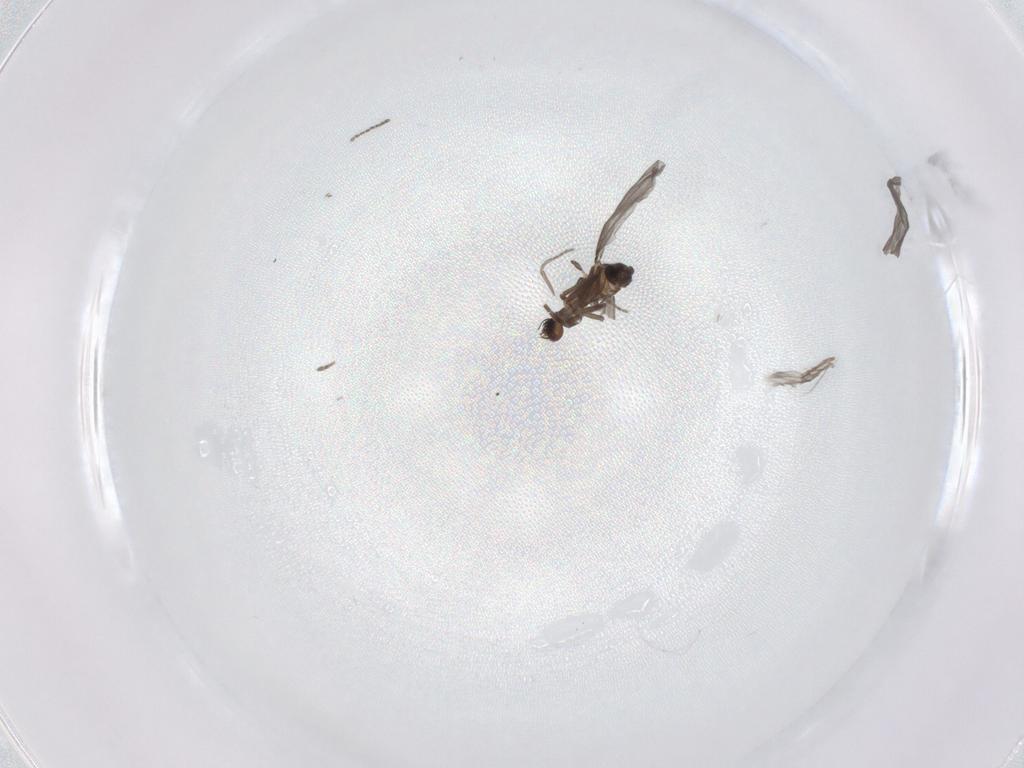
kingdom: Animalia
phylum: Arthropoda
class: Insecta
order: Diptera
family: Phoridae
